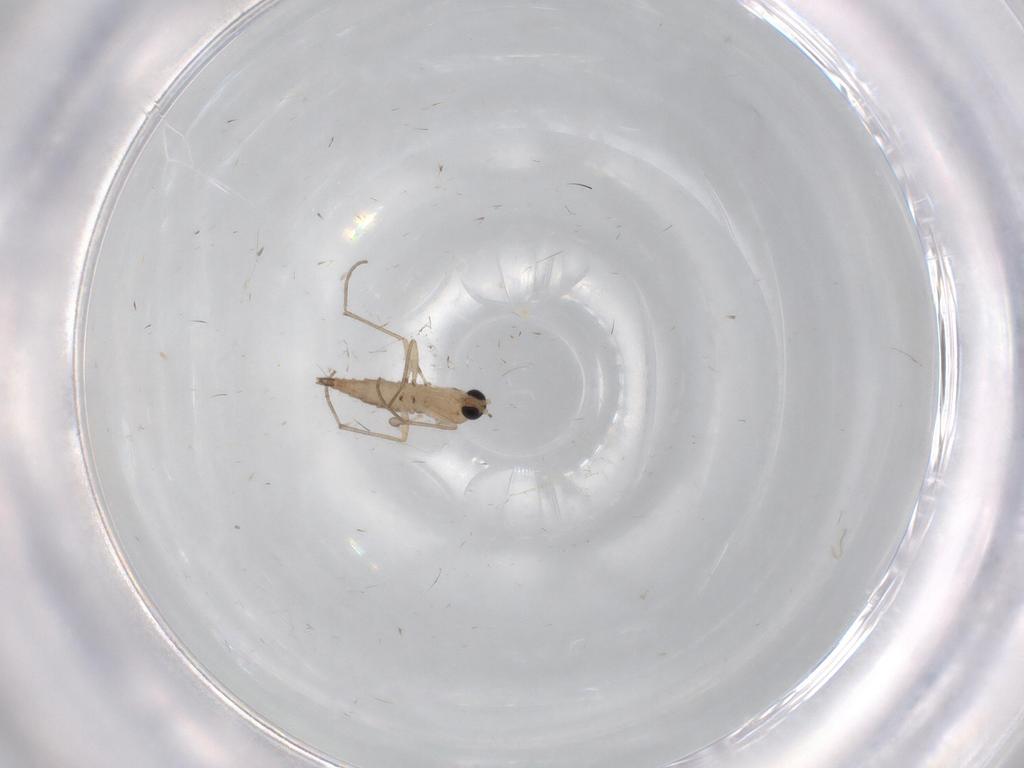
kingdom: Animalia
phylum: Arthropoda
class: Insecta
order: Diptera
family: Sciaridae
